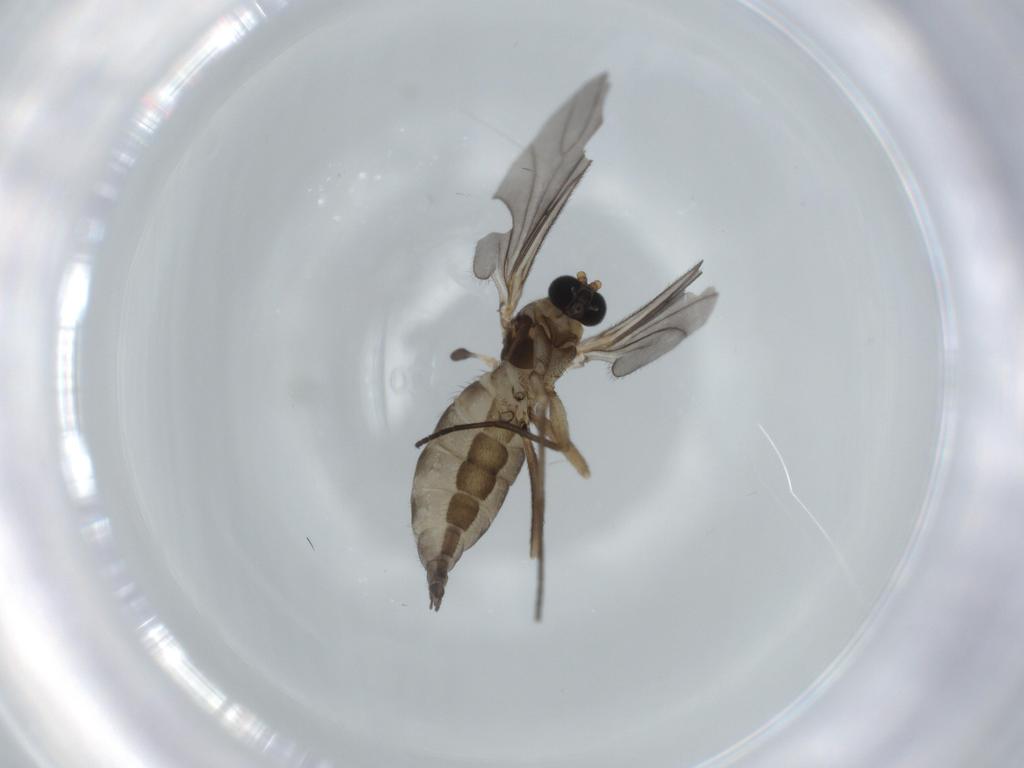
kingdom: Animalia
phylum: Arthropoda
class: Insecta
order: Diptera
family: Sciaridae
